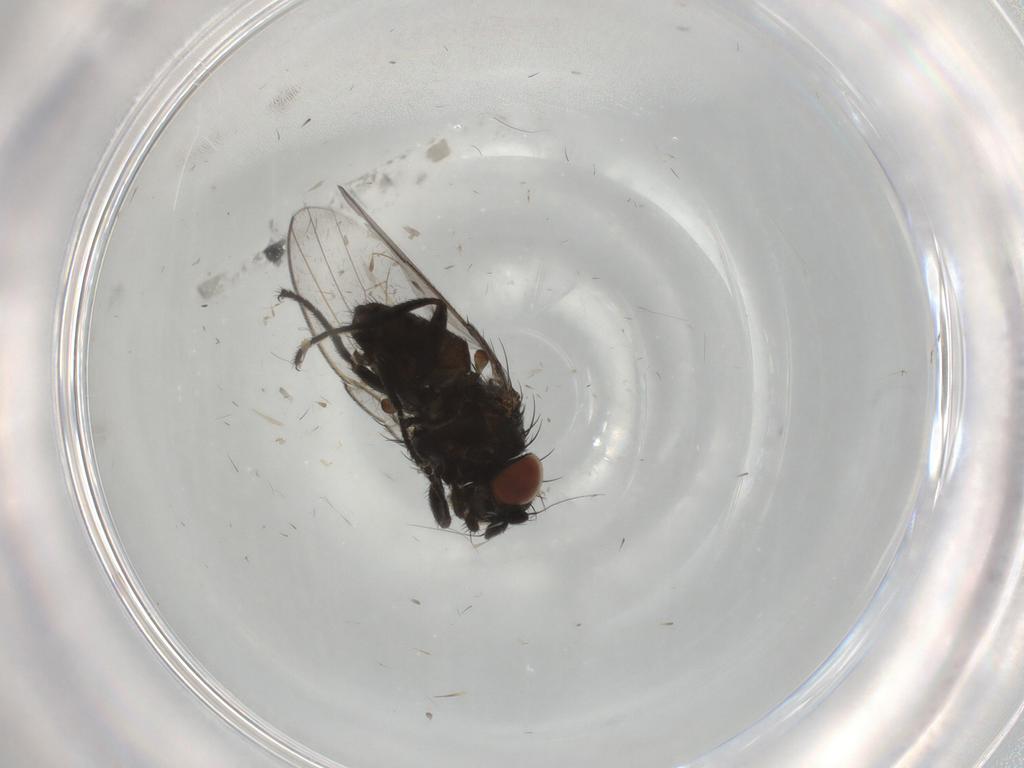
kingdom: Animalia
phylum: Arthropoda
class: Insecta
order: Diptera
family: Milichiidae
